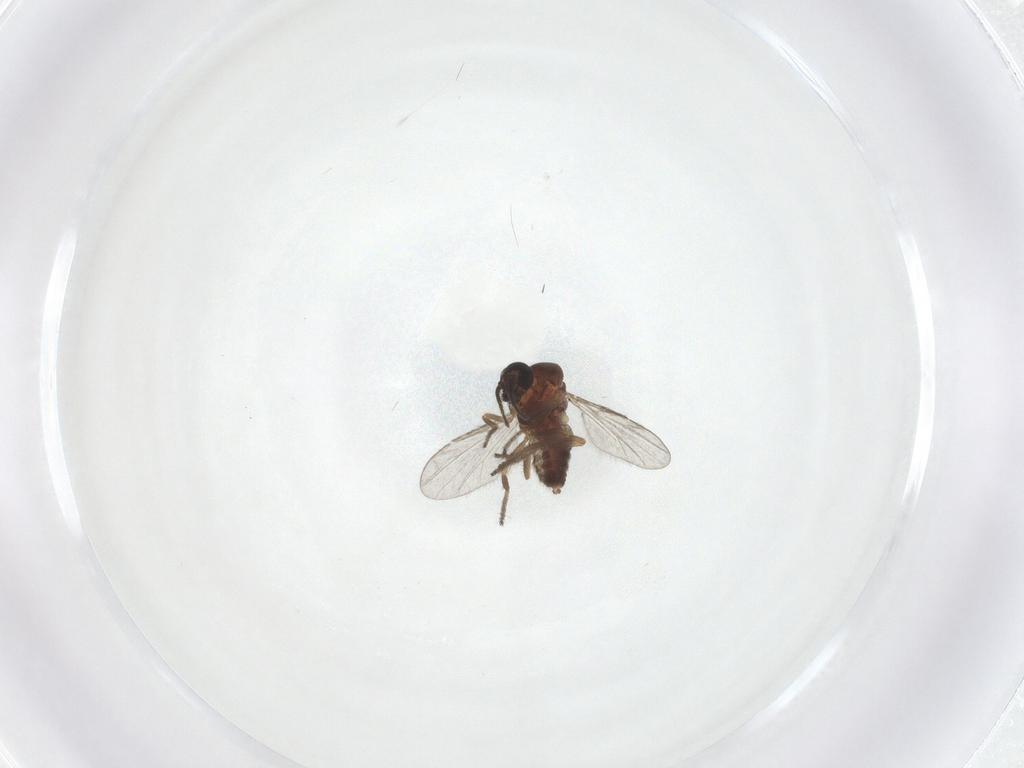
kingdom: Animalia
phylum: Arthropoda
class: Insecta
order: Diptera
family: Ceratopogonidae
